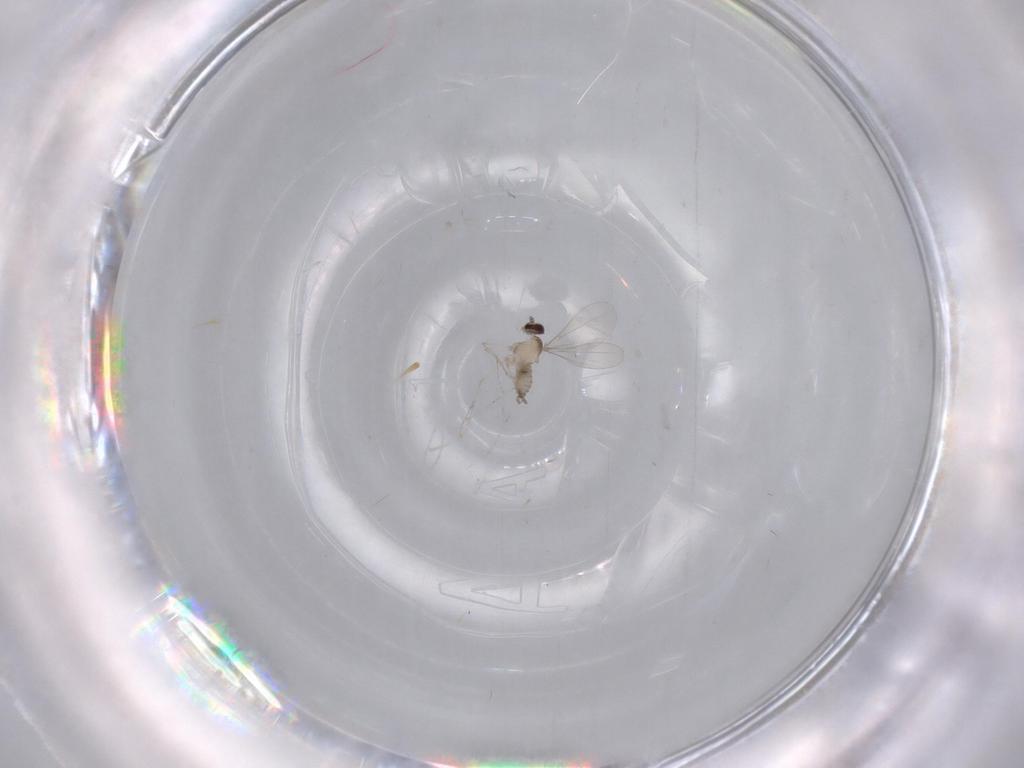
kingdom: Animalia
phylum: Arthropoda
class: Insecta
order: Diptera
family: Cecidomyiidae
